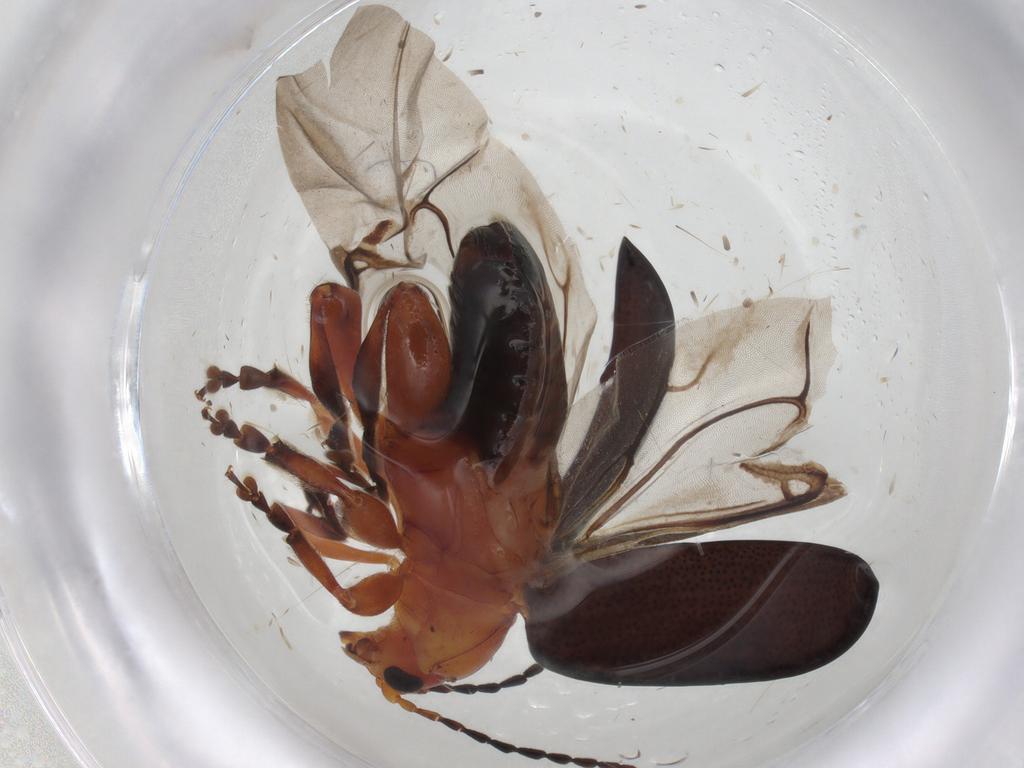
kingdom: Animalia
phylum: Arthropoda
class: Insecta
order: Coleoptera
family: Chrysomelidae
